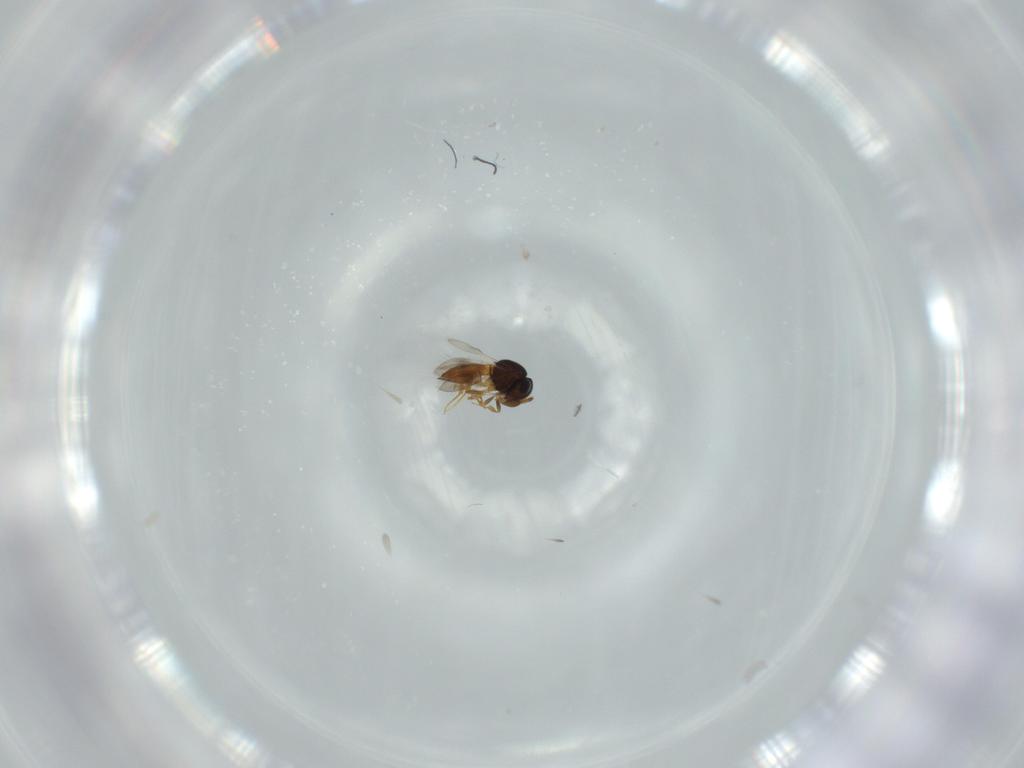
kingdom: Animalia
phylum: Arthropoda
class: Insecta
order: Hymenoptera
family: Scelionidae
